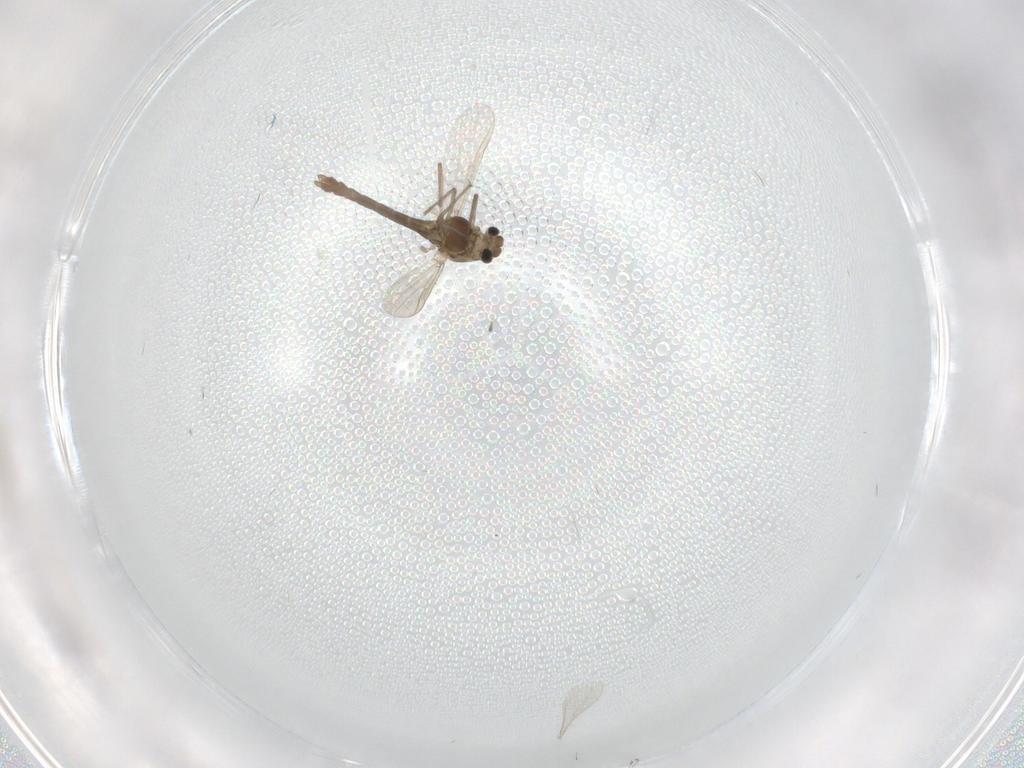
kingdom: Animalia
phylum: Arthropoda
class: Insecta
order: Diptera
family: Chironomidae
